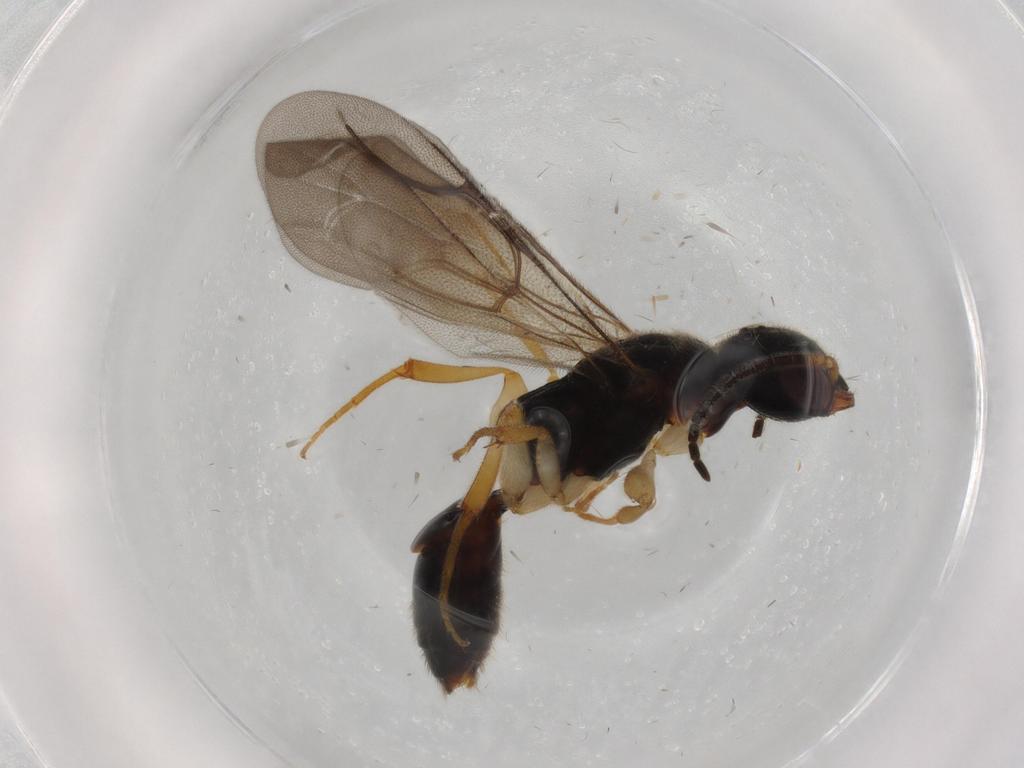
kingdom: Animalia
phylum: Arthropoda
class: Insecta
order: Hymenoptera
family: Bethylidae
